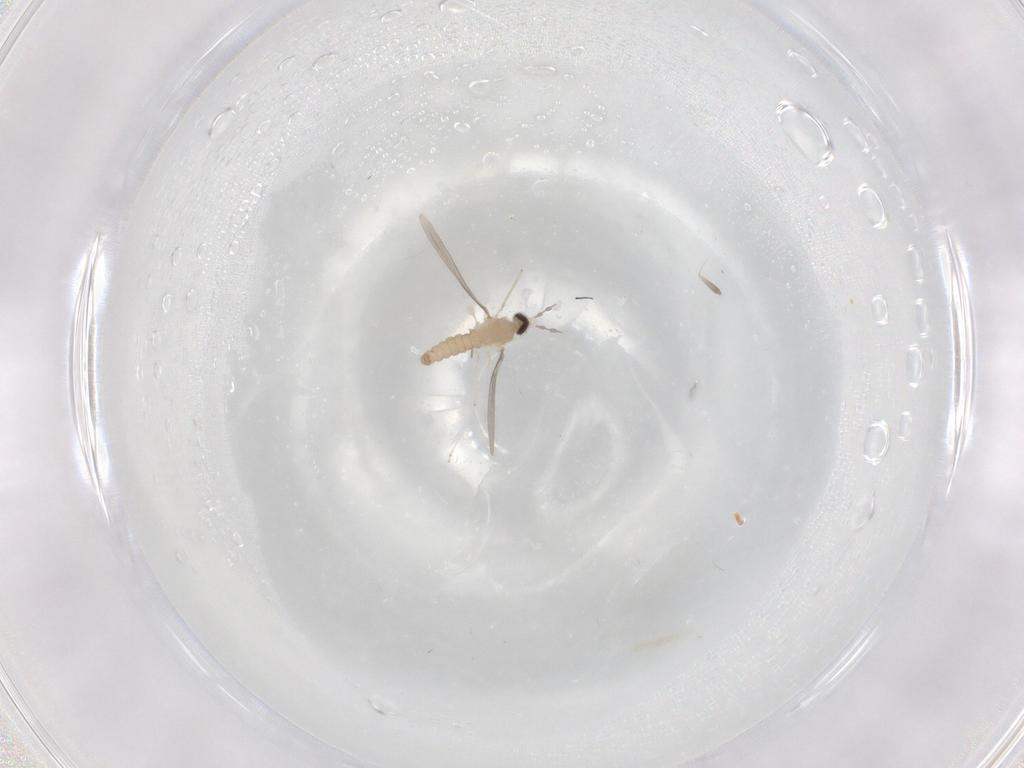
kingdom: Animalia
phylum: Arthropoda
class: Insecta
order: Diptera
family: Cecidomyiidae
